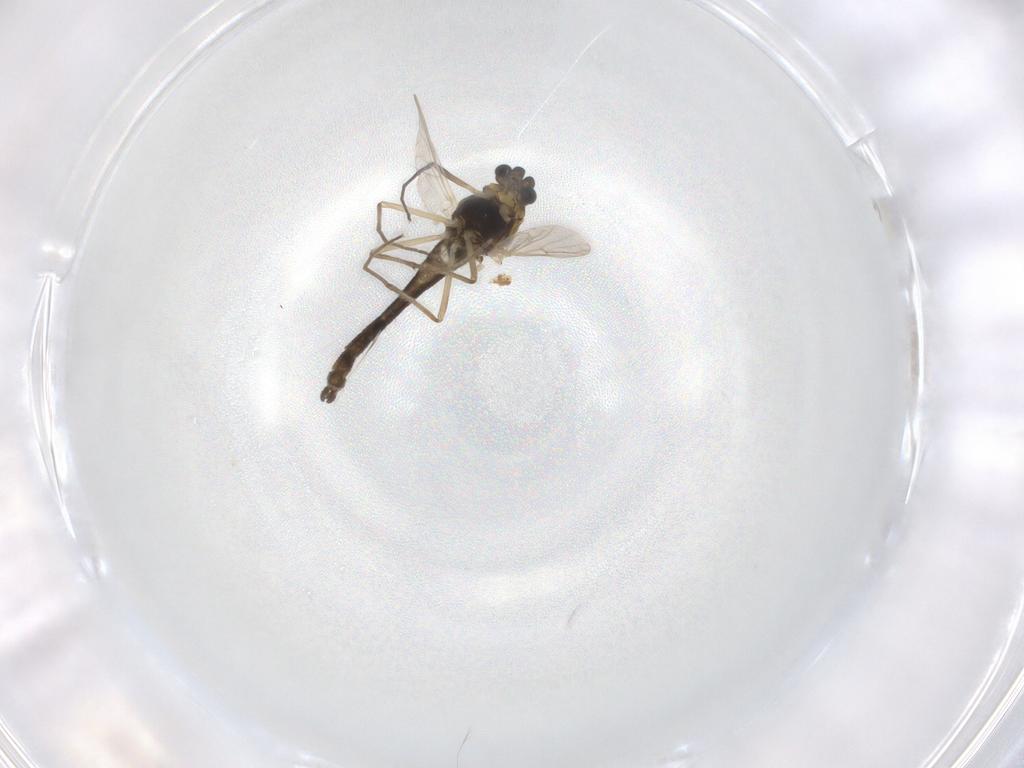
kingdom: Animalia
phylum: Arthropoda
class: Insecta
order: Diptera
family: Chironomidae
